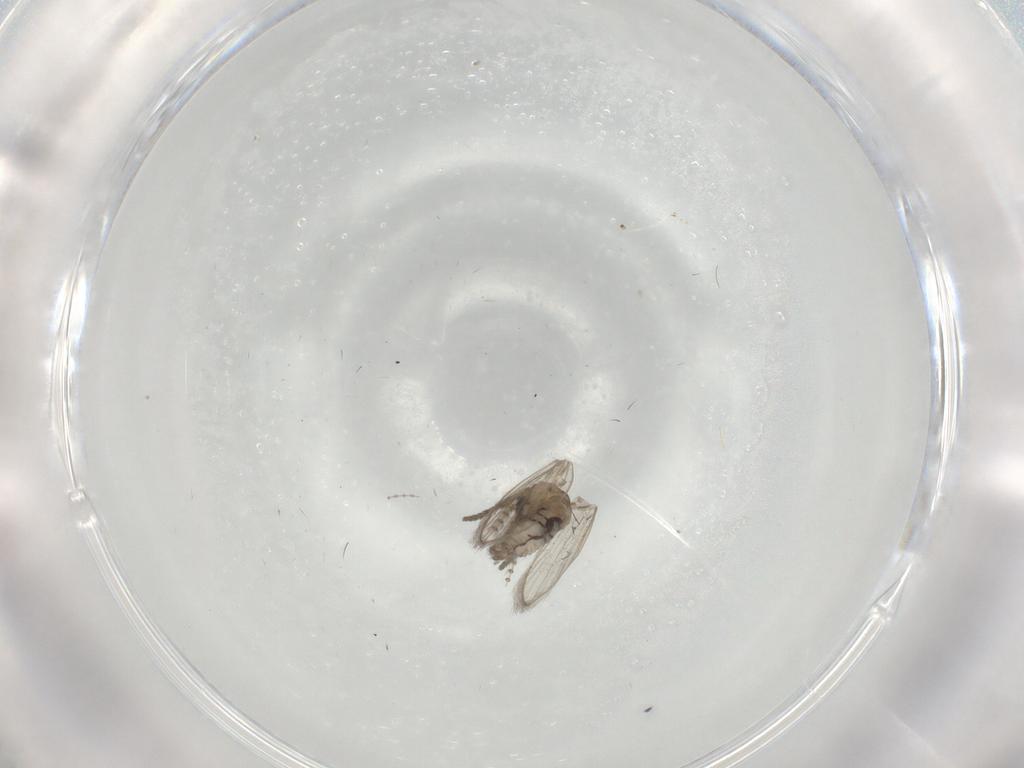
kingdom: Animalia
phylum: Arthropoda
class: Insecta
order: Diptera
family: Psychodidae
